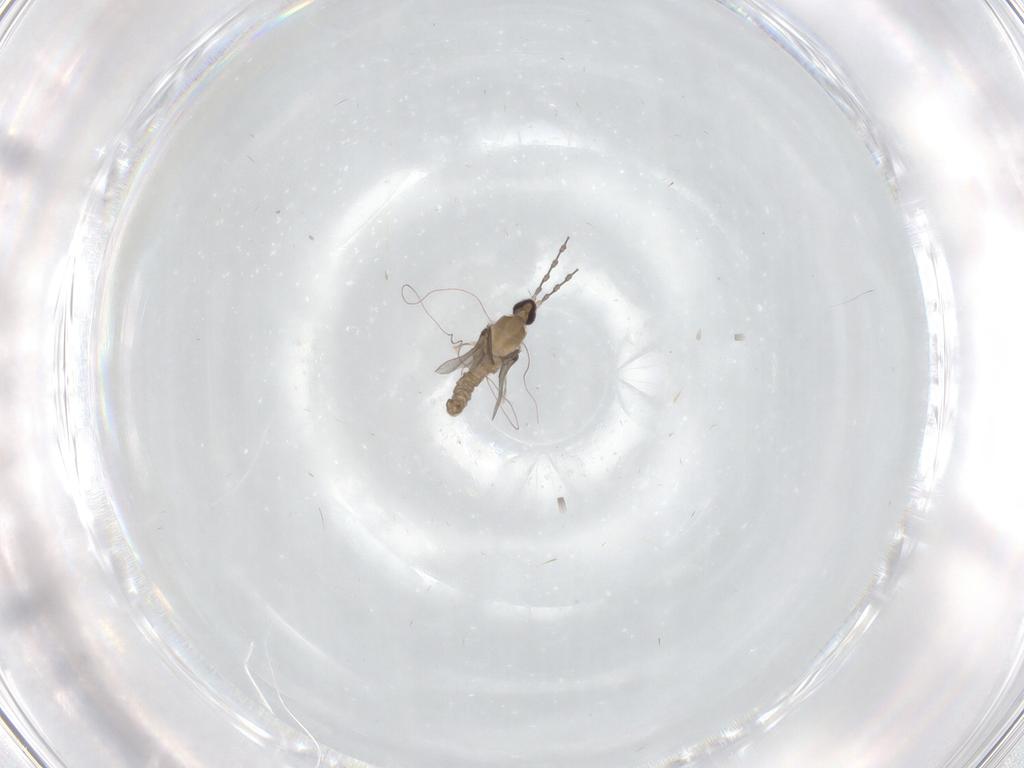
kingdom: Animalia
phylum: Arthropoda
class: Insecta
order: Diptera
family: Cecidomyiidae
